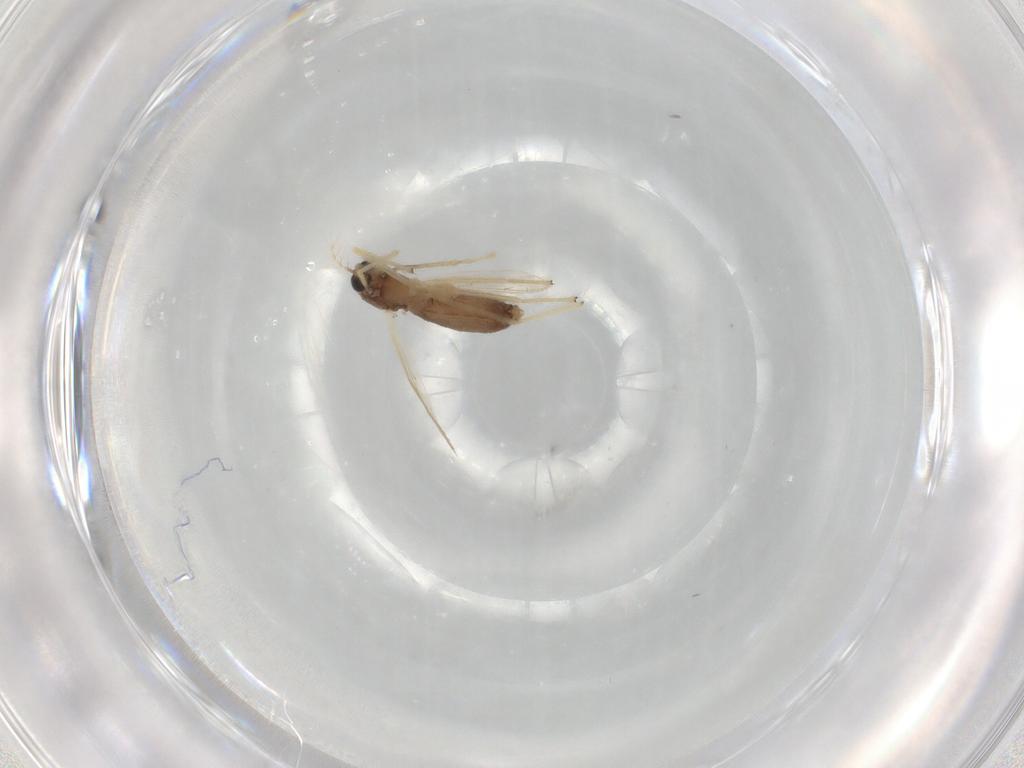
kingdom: Animalia
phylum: Arthropoda
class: Insecta
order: Diptera
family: Chironomidae
